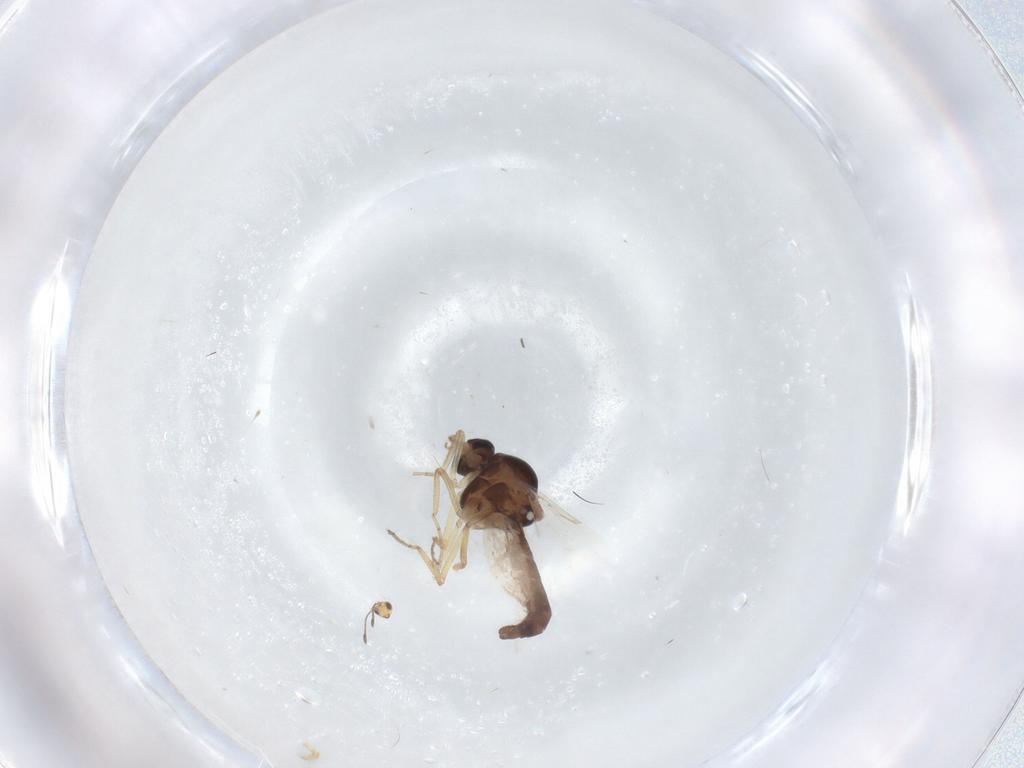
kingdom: Animalia
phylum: Arthropoda
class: Insecta
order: Diptera
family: Ceratopogonidae
